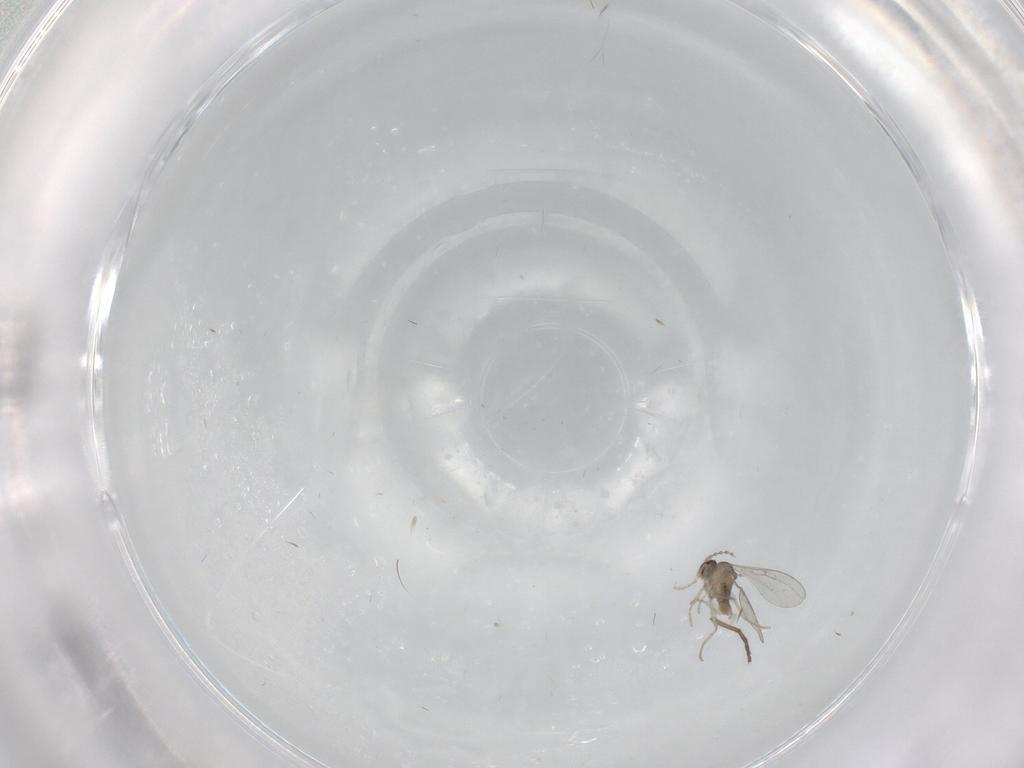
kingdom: Animalia
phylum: Arthropoda
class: Insecta
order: Diptera
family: Cecidomyiidae
